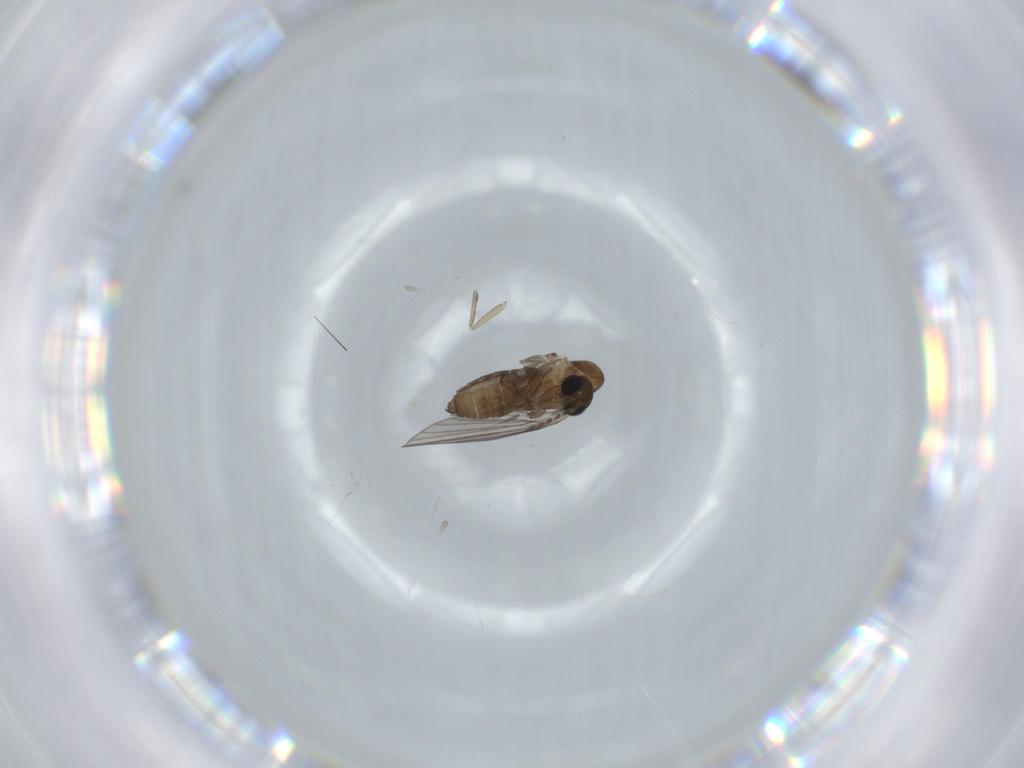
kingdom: Animalia
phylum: Arthropoda
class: Insecta
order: Diptera
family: Psychodidae
